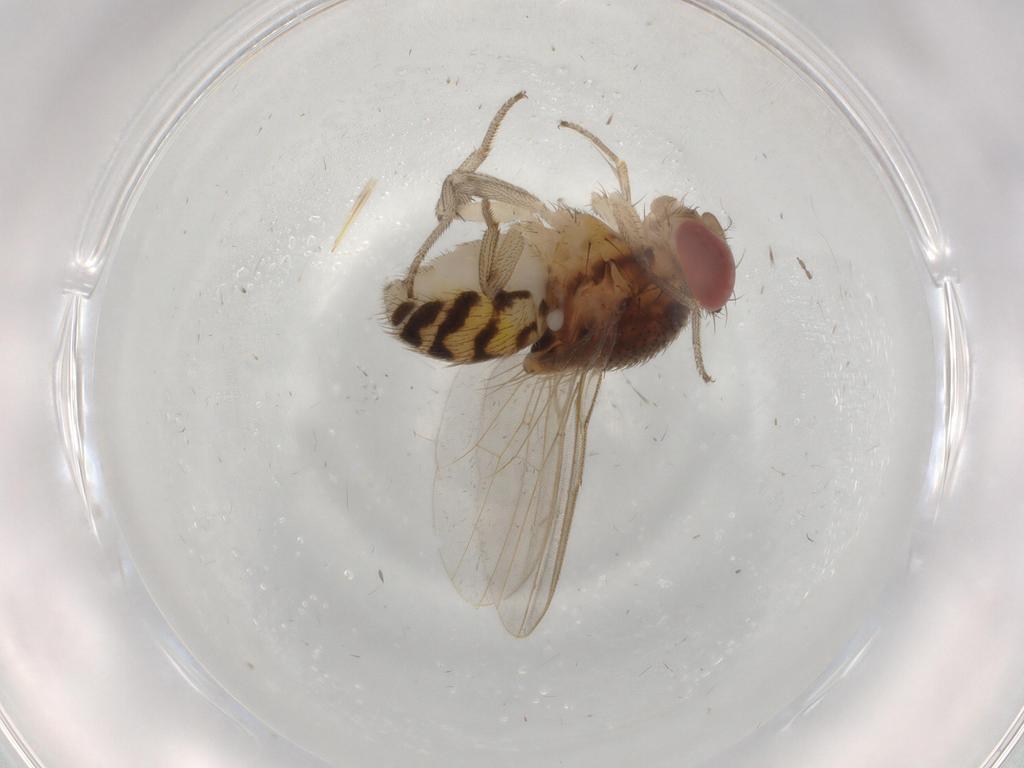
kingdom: Animalia
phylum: Arthropoda
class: Insecta
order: Diptera
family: Drosophilidae
